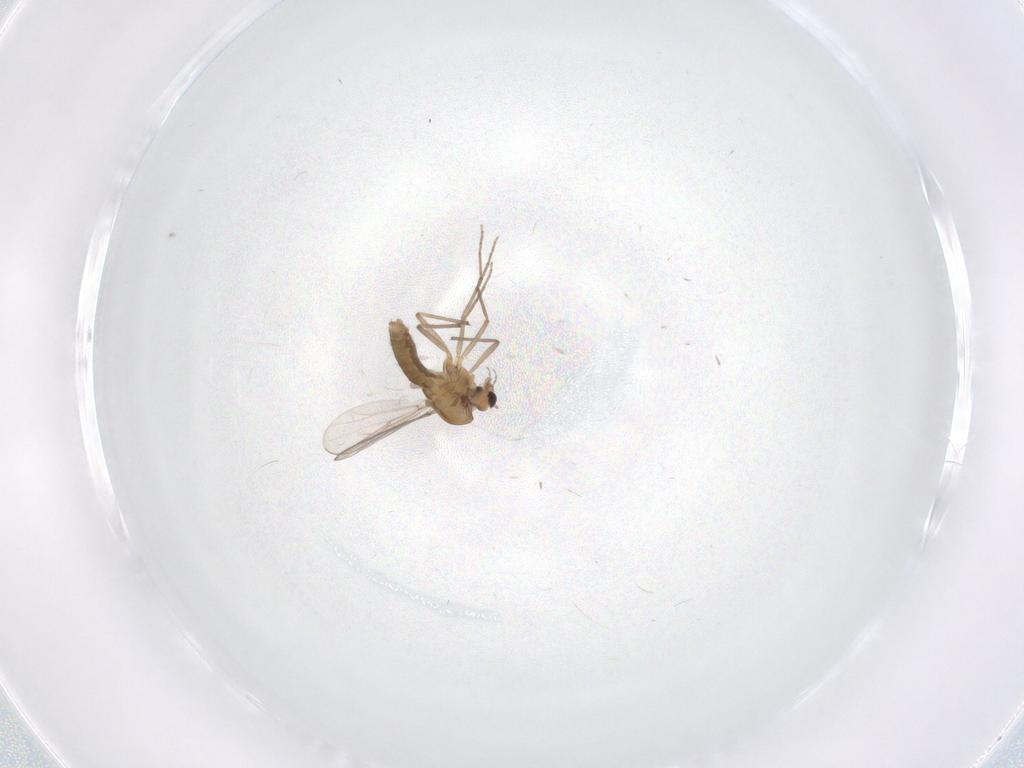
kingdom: Animalia
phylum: Arthropoda
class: Insecta
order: Diptera
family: Chironomidae
